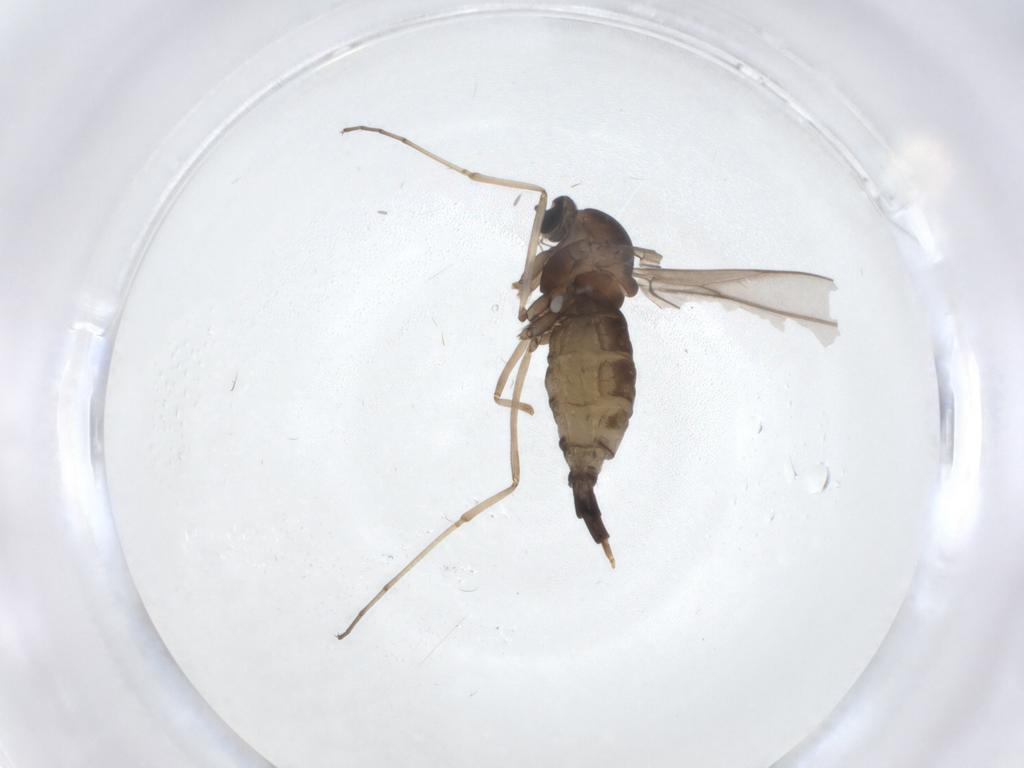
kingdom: Animalia
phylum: Arthropoda
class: Insecta
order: Diptera
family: Cecidomyiidae
